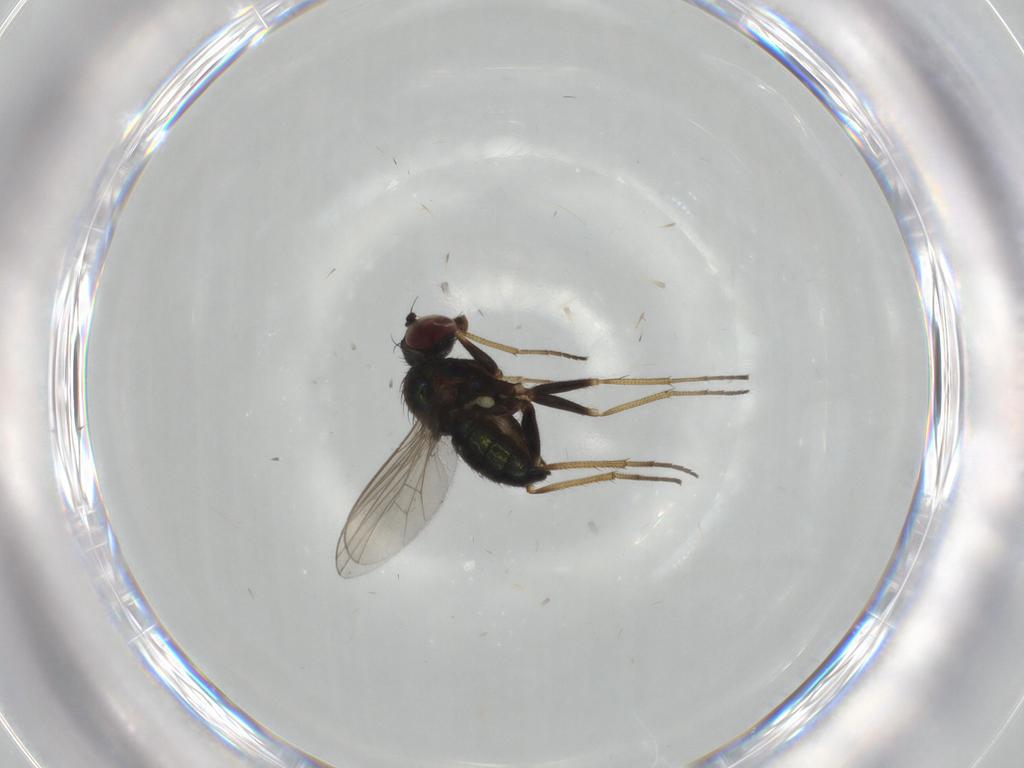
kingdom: Animalia
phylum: Arthropoda
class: Insecta
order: Diptera
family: Dolichopodidae
